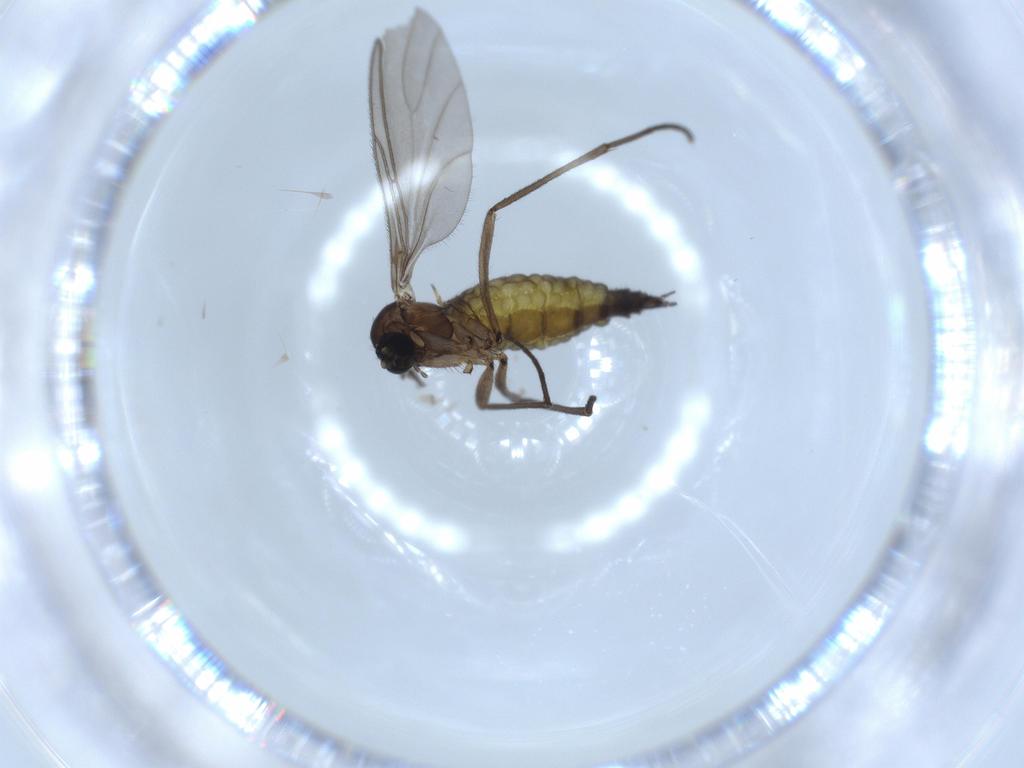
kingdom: Animalia
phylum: Arthropoda
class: Insecta
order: Diptera
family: Sciaridae
